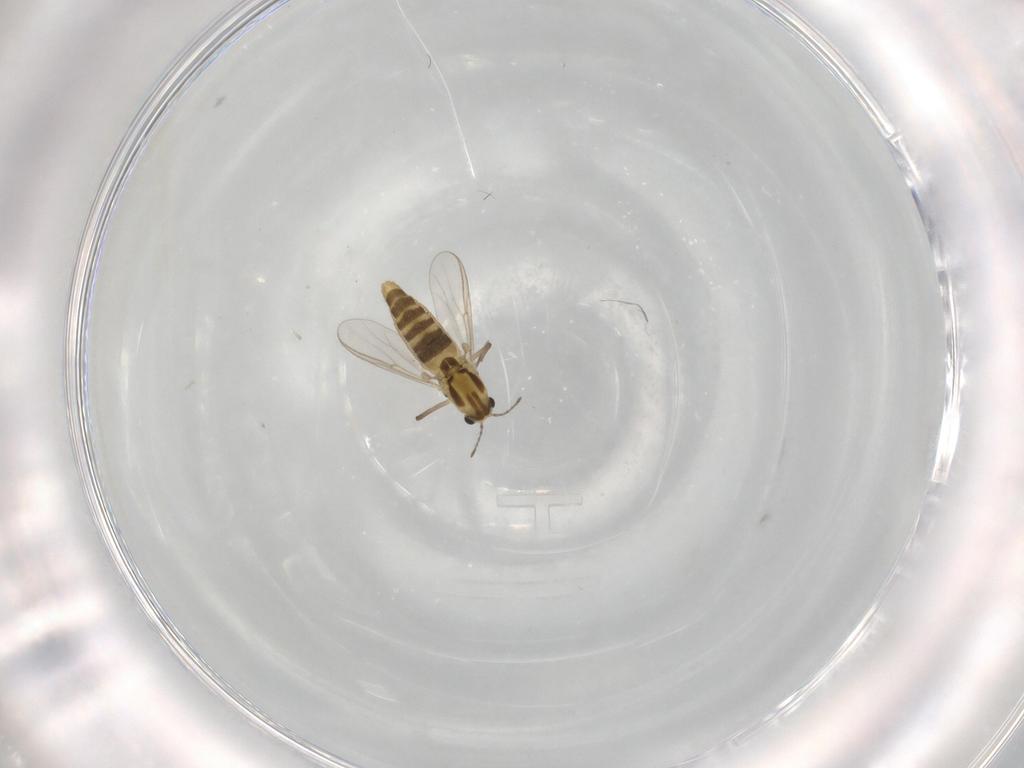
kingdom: Animalia
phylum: Arthropoda
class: Insecta
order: Diptera
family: Chironomidae
